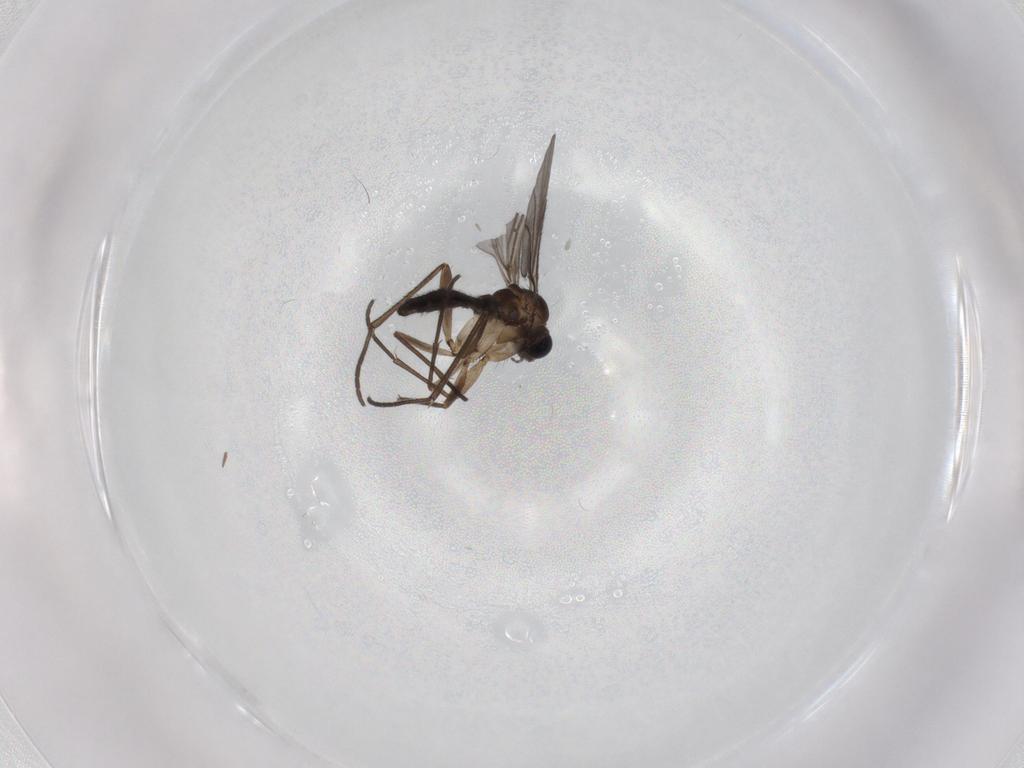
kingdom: Animalia
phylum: Arthropoda
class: Insecta
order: Diptera
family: Sciaridae
